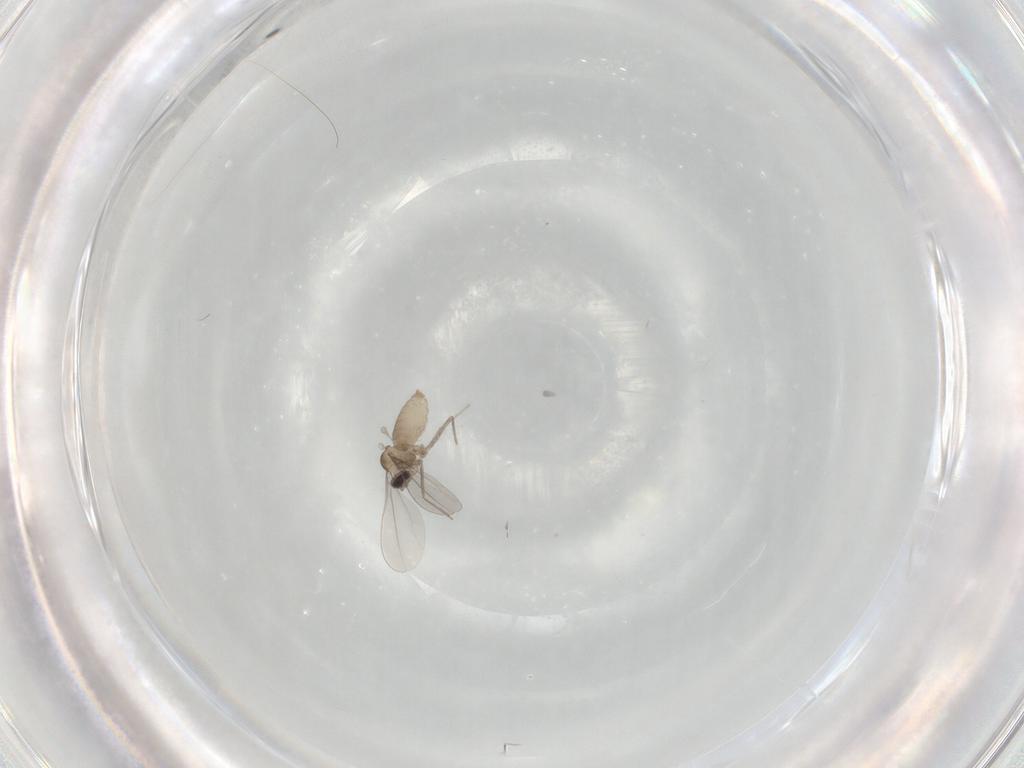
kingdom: Animalia
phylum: Arthropoda
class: Insecta
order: Diptera
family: Cecidomyiidae
